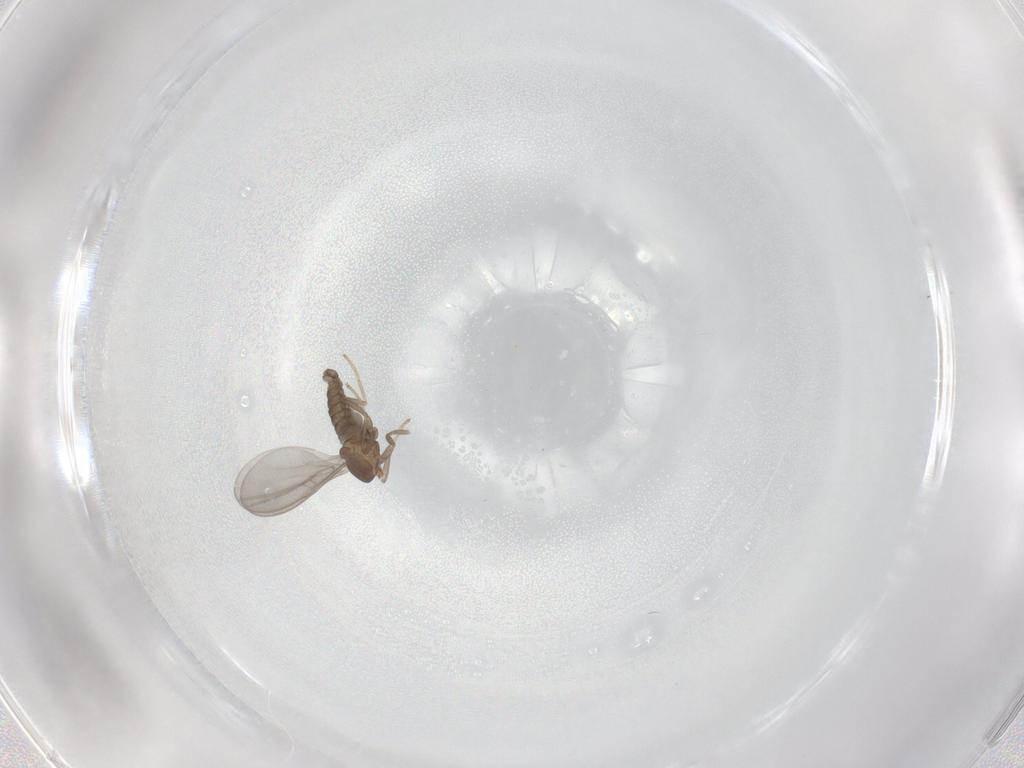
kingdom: Animalia
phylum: Arthropoda
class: Insecta
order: Diptera
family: Cecidomyiidae
